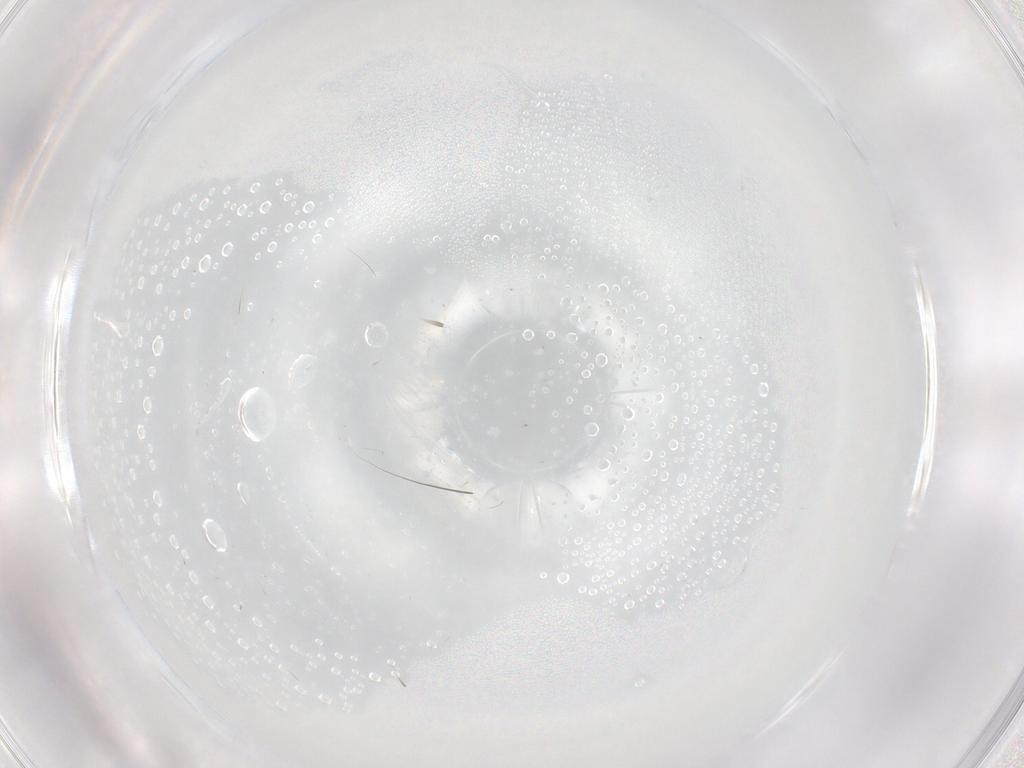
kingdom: Animalia
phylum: Arthropoda
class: Insecta
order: Diptera
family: Cecidomyiidae
